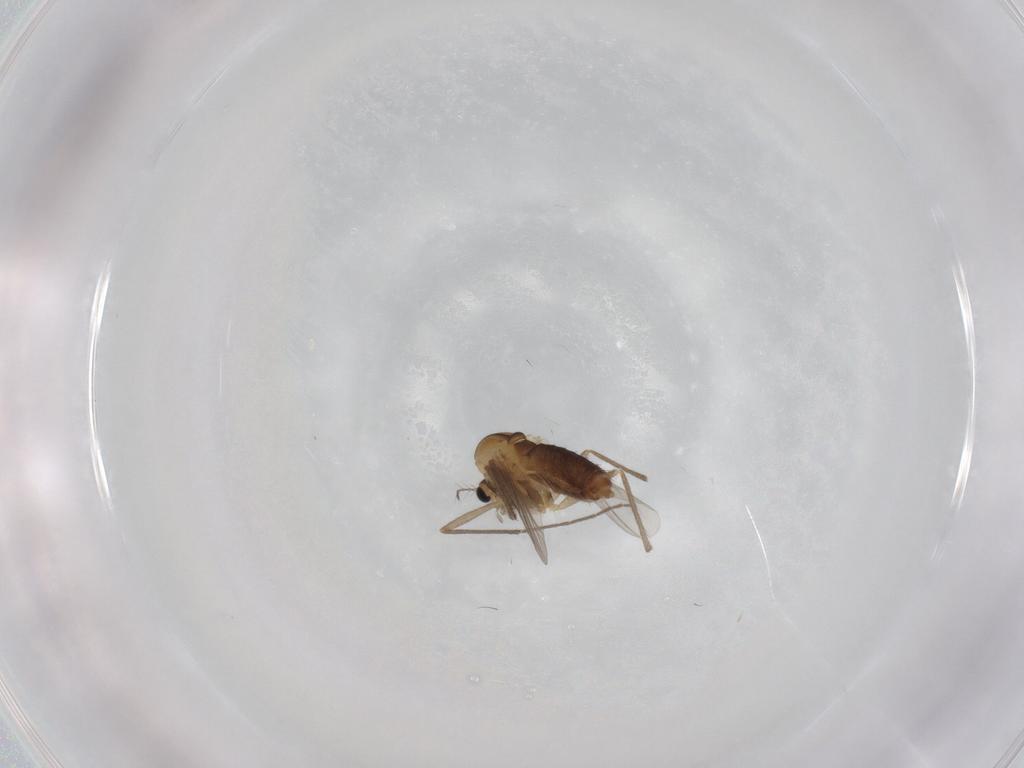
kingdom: Animalia
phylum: Arthropoda
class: Insecta
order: Diptera
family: Chironomidae
